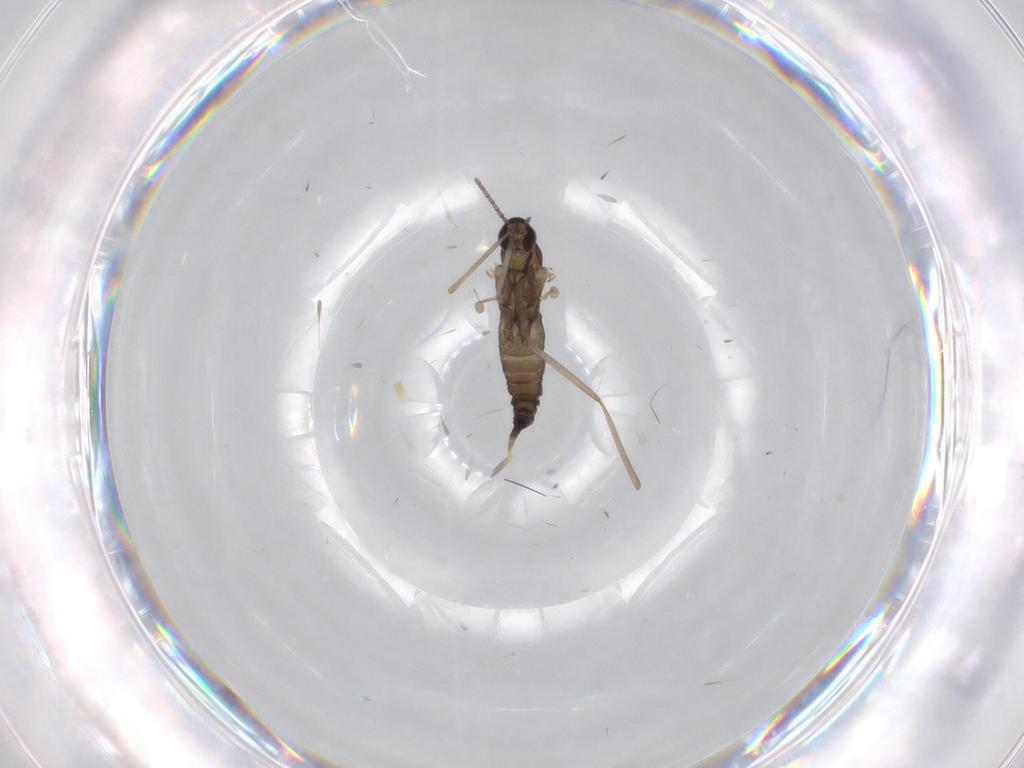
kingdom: Animalia
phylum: Arthropoda
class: Insecta
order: Diptera
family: Cecidomyiidae
